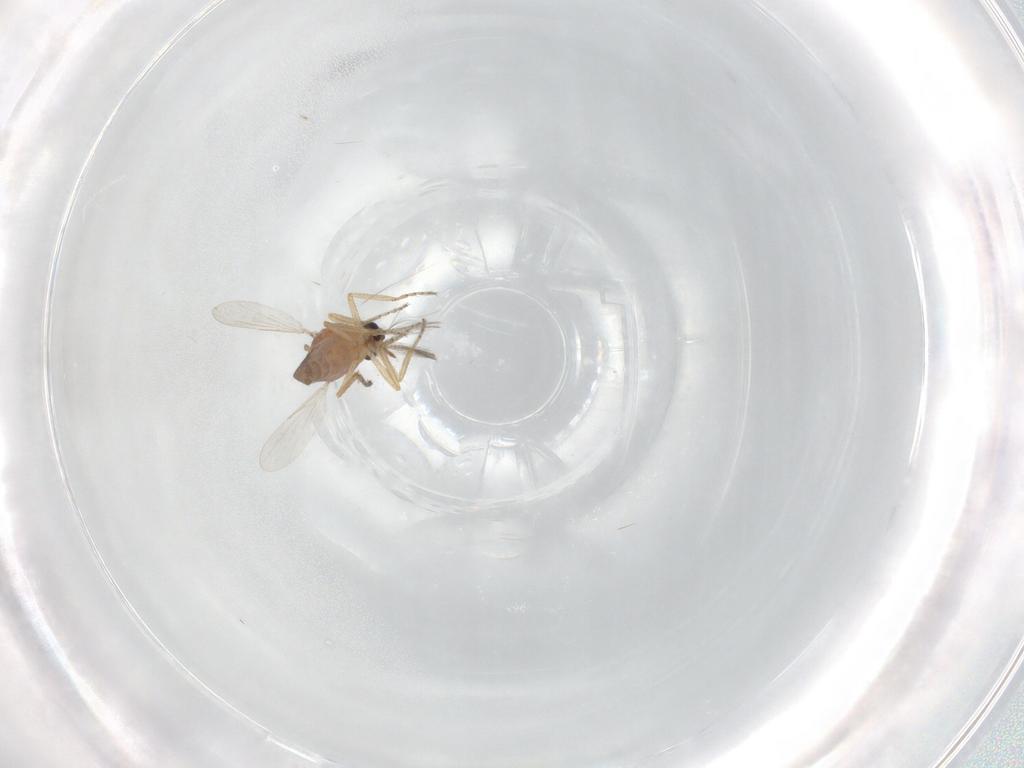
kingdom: Animalia
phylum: Arthropoda
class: Insecta
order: Diptera
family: Ceratopogonidae
